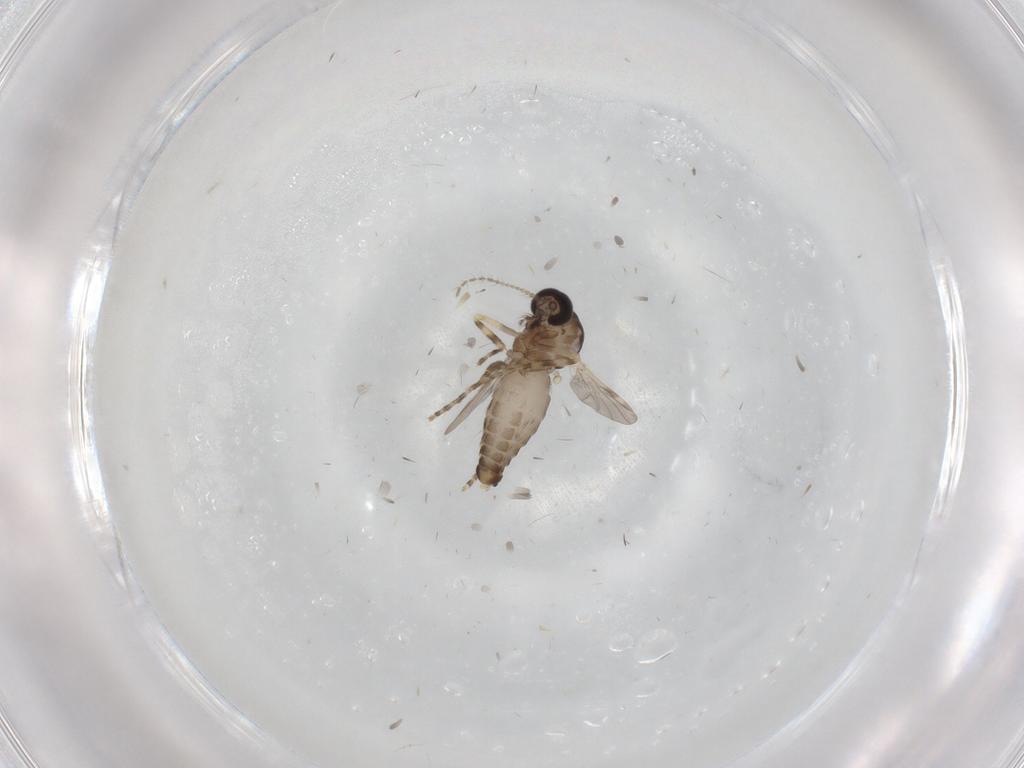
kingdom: Animalia
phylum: Arthropoda
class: Insecta
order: Diptera
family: Ceratopogonidae
